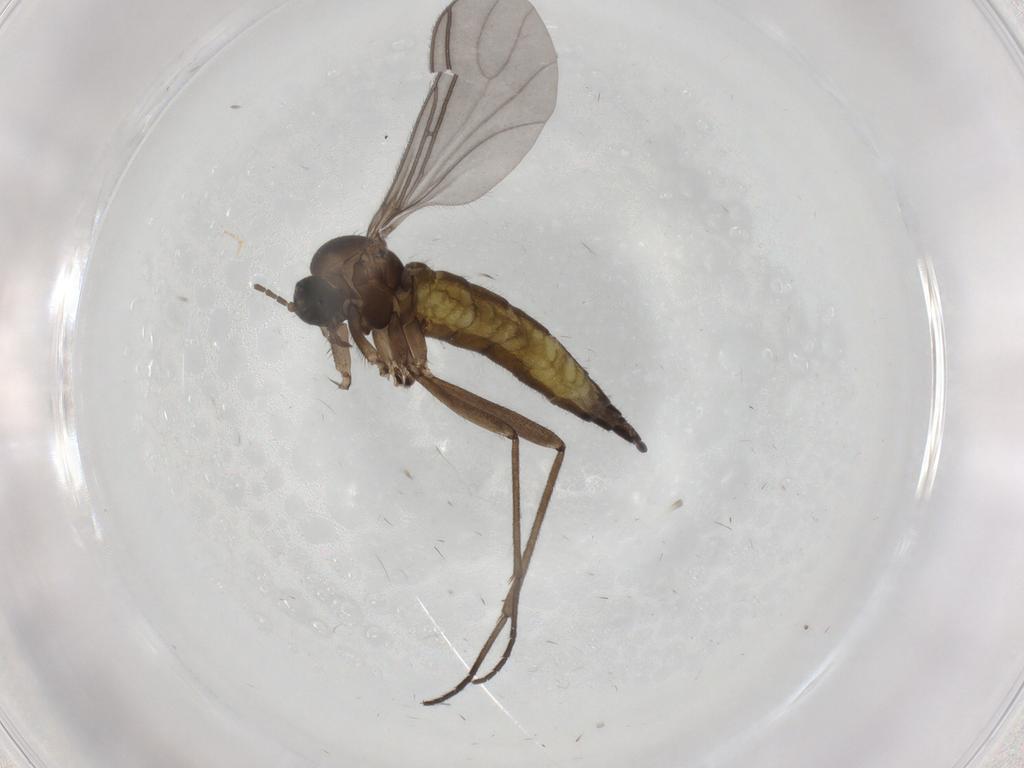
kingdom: Animalia
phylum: Arthropoda
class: Insecta
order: Diptera
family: Sciaridae
